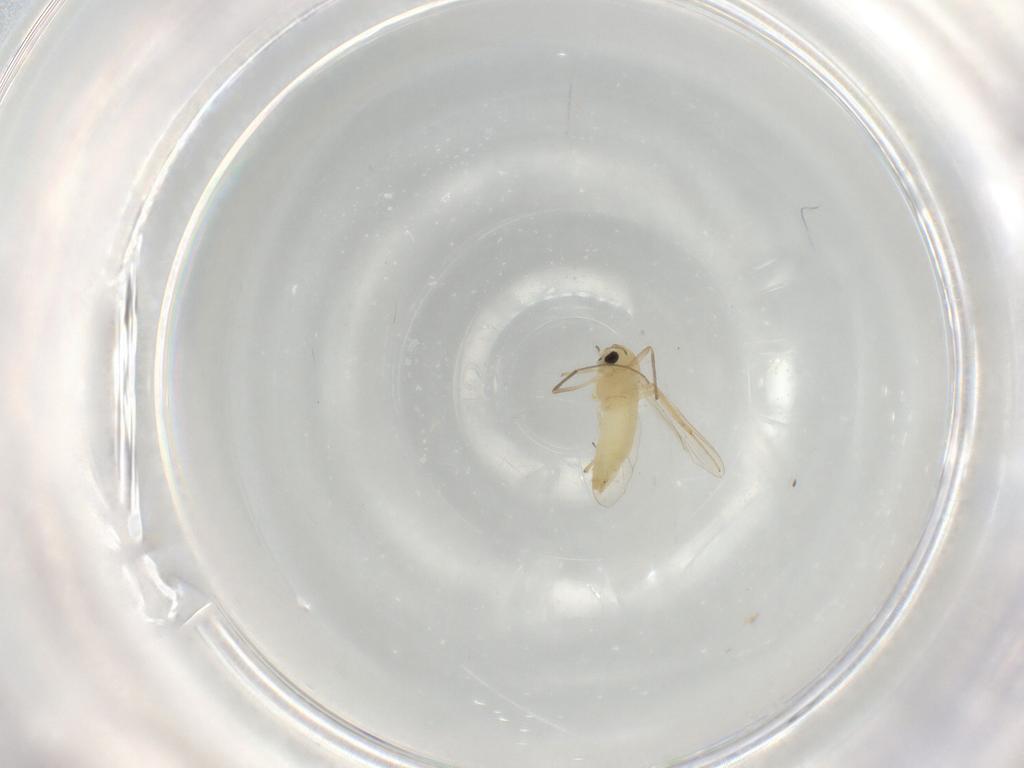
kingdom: Animalia
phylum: Arthropoda
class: Insecta
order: Diptera
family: Chironomidae
